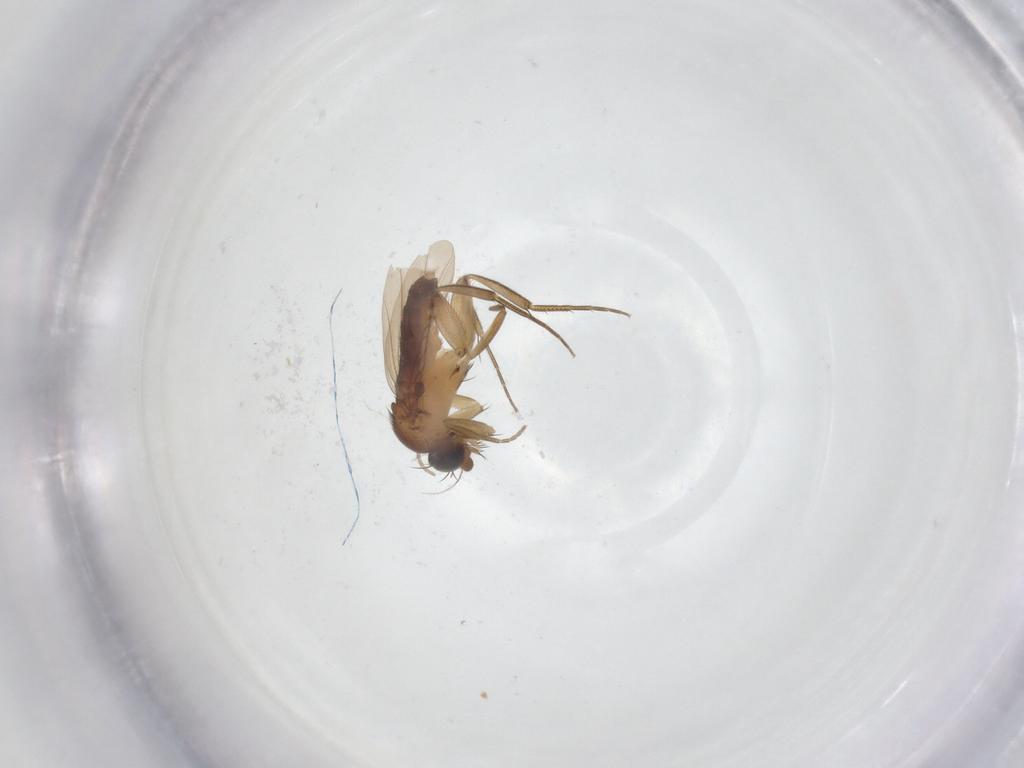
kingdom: Animalia
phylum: Arthropoda
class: Insecta
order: Diptera
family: Phoridae
